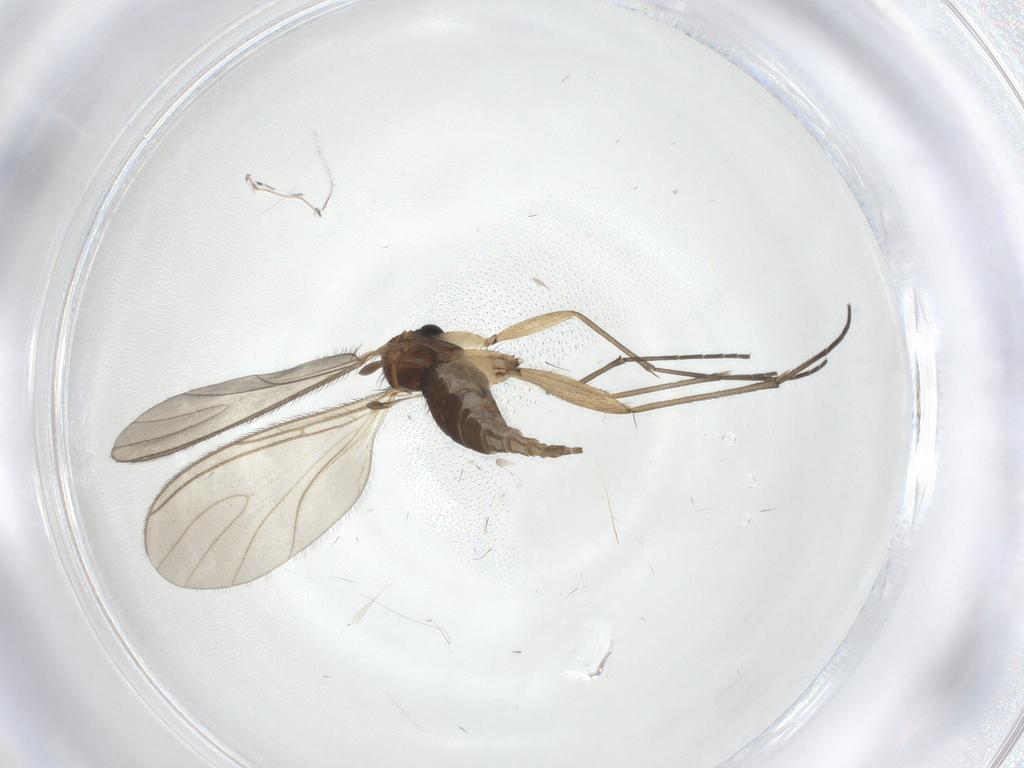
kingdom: Animalia
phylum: Arthropoda
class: Insecta
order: Diptera
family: Sciaridae
